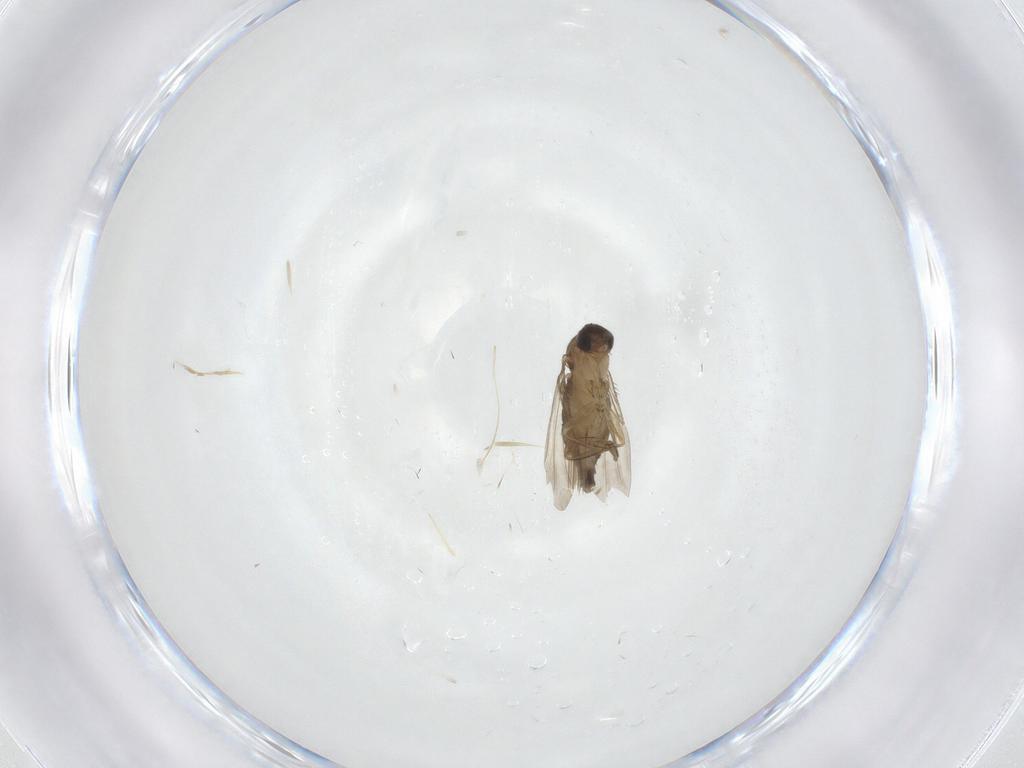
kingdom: Animalia
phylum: Arthropoda
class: Insecta
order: Diptera
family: Phoridae
